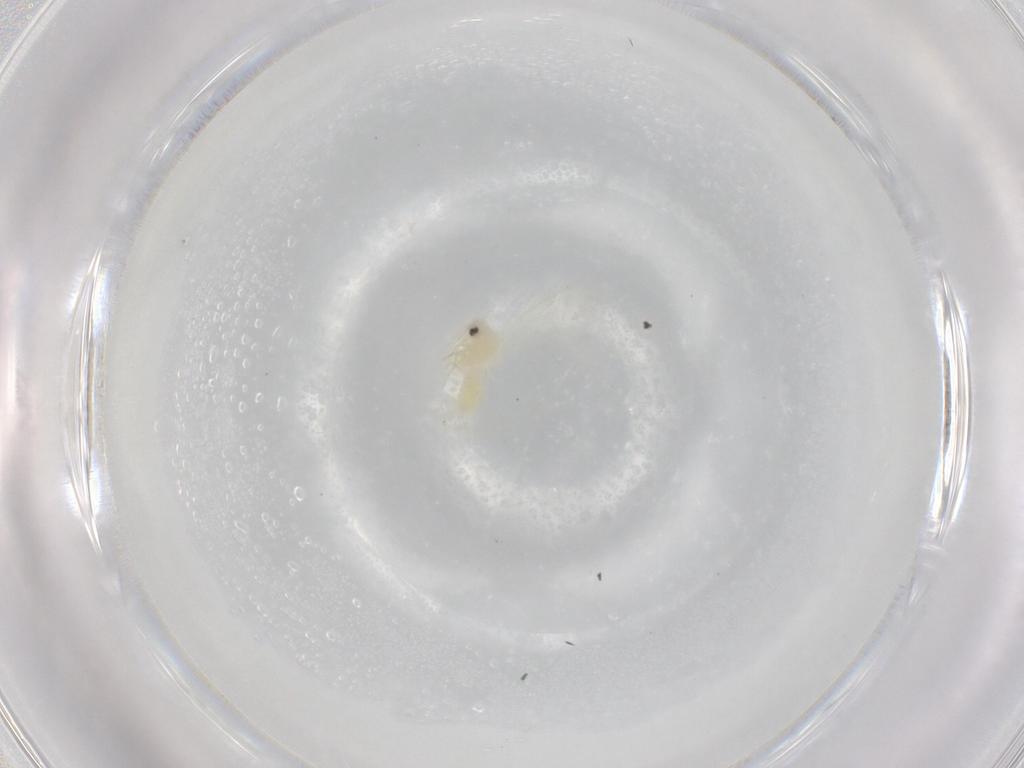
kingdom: Animalia
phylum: Arthropoda
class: Insecta
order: Hemiptera
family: Aleyrodidae
